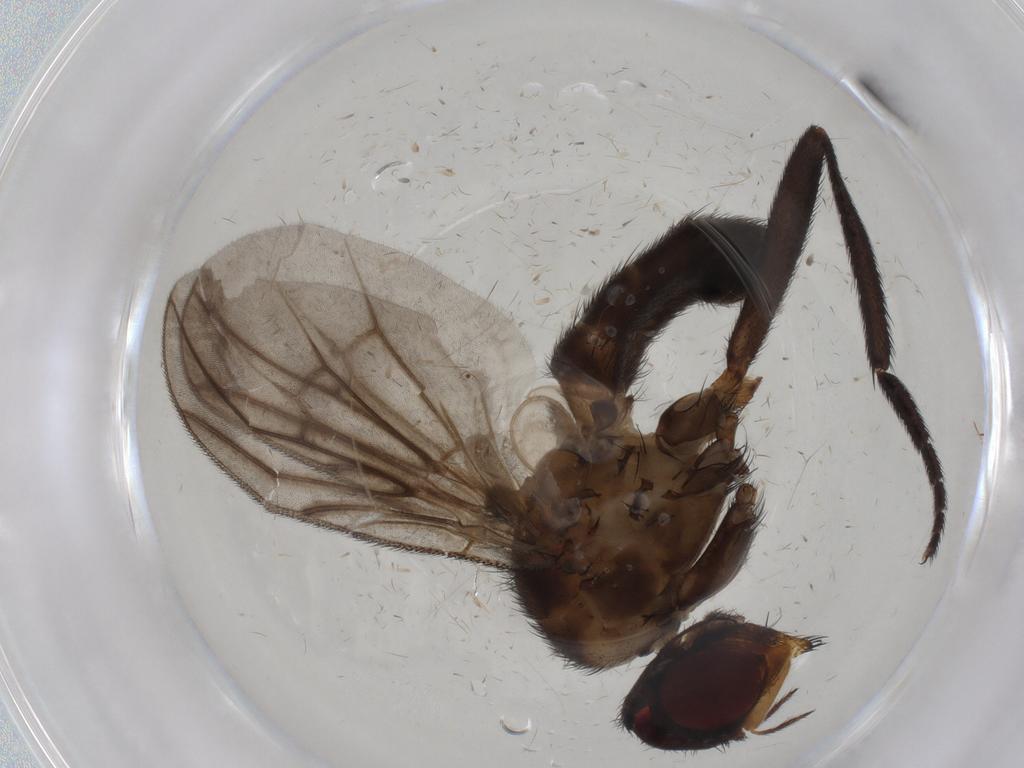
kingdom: Animalia
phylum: Arthropoda
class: Insecta
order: Diptera
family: Calliphoridae
